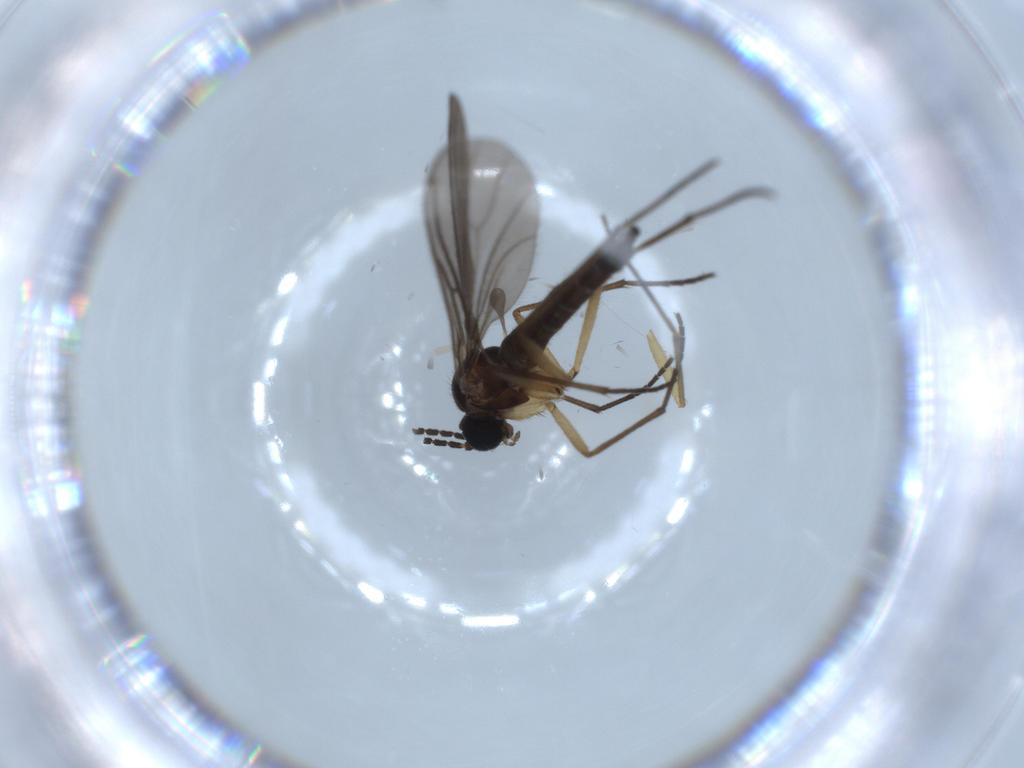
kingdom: Animalia
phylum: Arthropoda
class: Insecta
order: Diptera
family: Sciaridae
